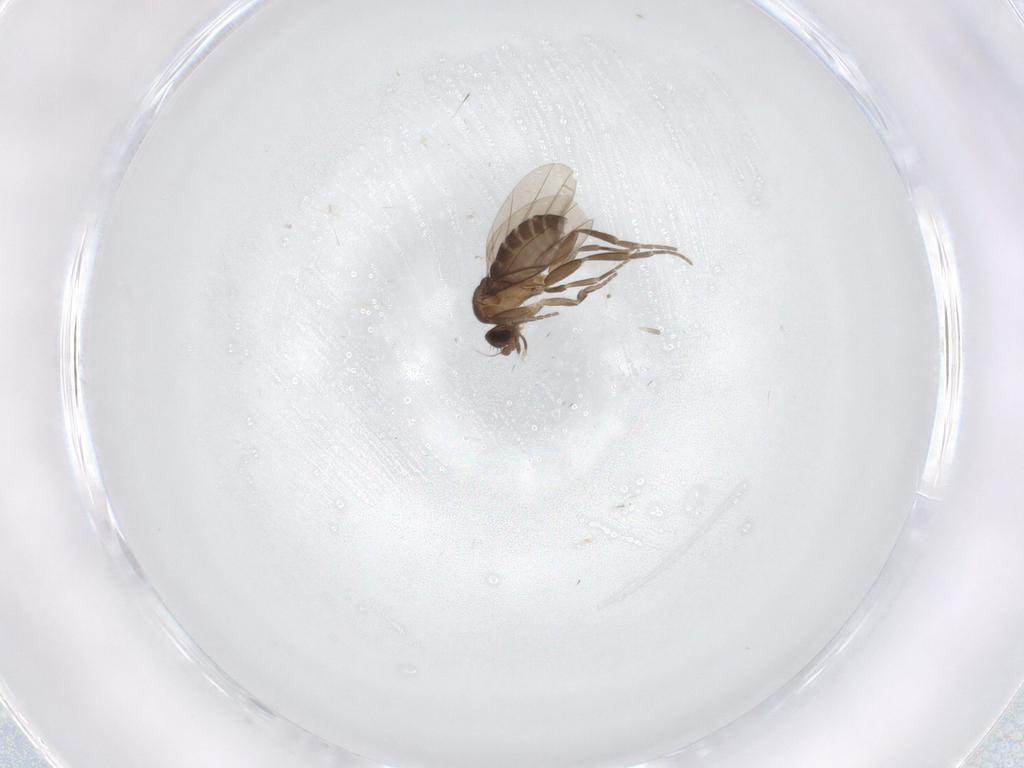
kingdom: Animalia
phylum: Arthropoda
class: Insecta
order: Diptera
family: Phoridae
